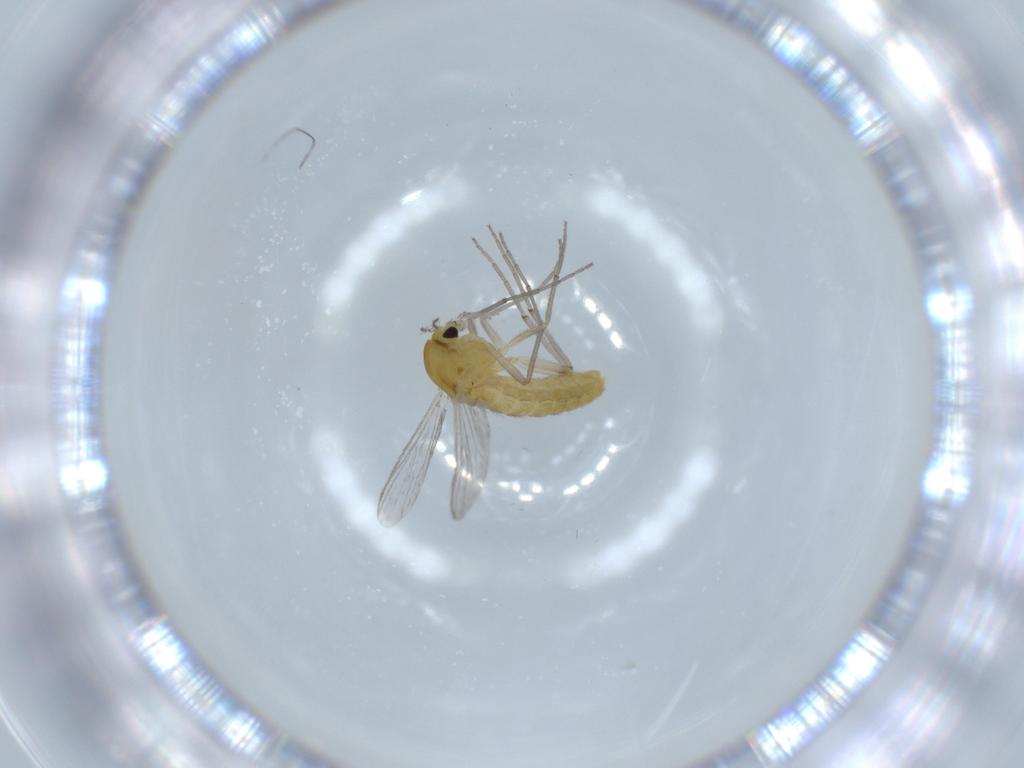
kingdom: Animalia
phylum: Arthropoda
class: Insecta
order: Diptera
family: Chironomidae
